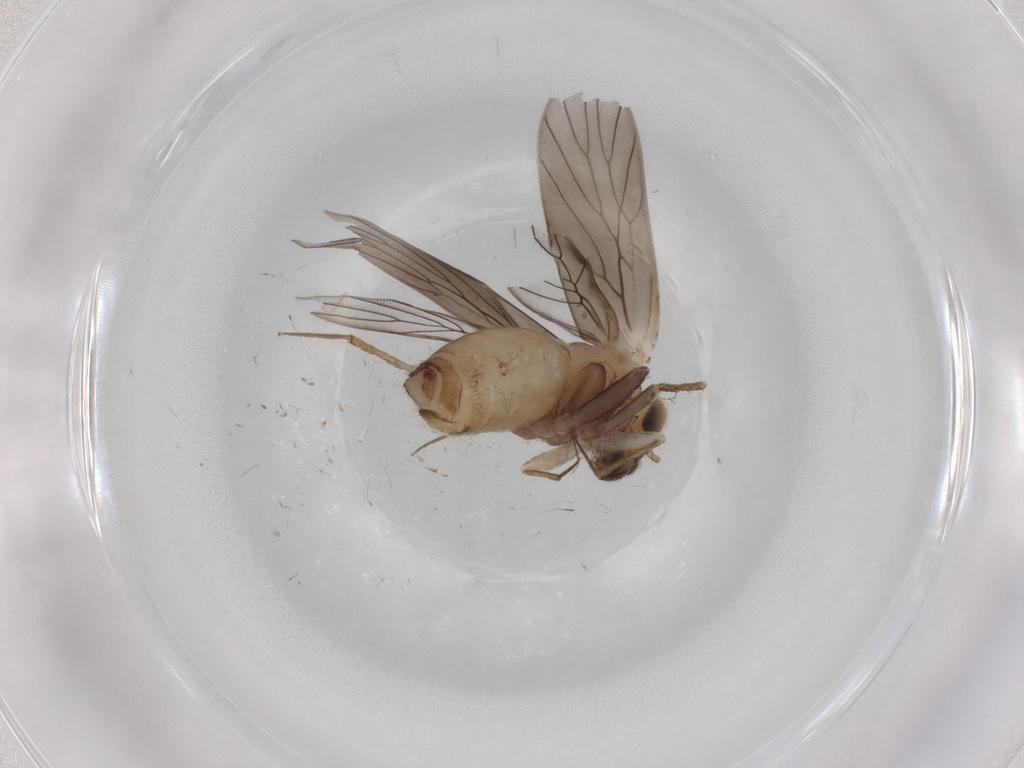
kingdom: Animalia
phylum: Arthropoda
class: Insecta
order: Psocodea
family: Lepidopsocidae
